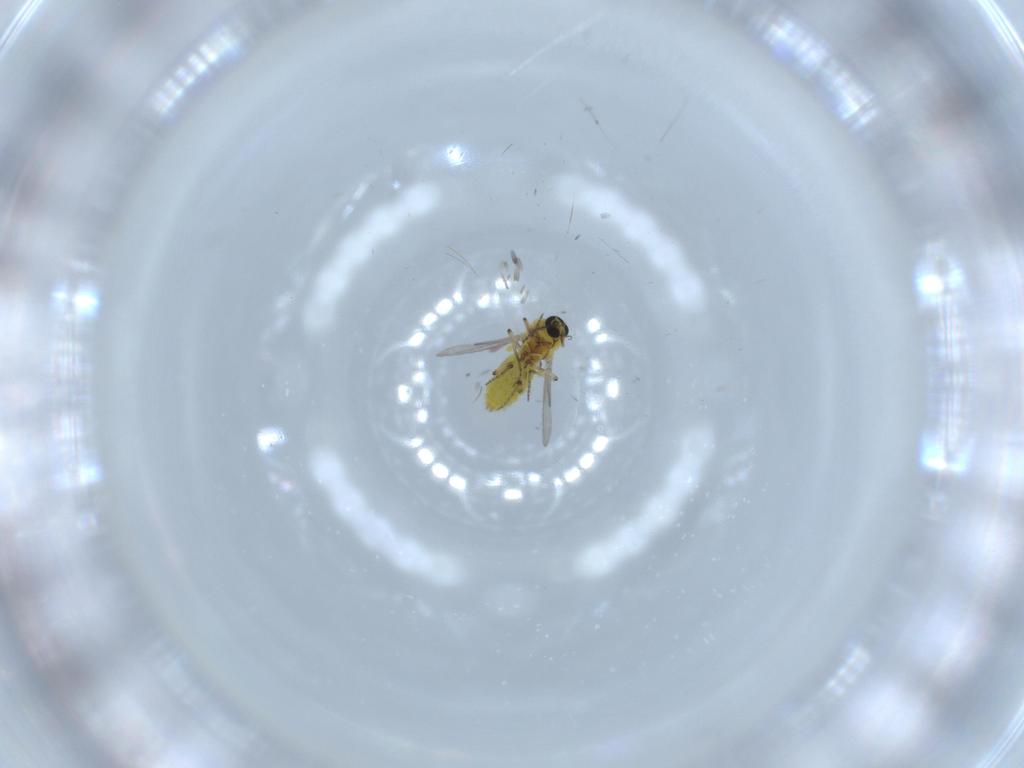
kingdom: Animalia
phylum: Arthropoda
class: Insecta
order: Diptera
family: Ceratopogonidae
